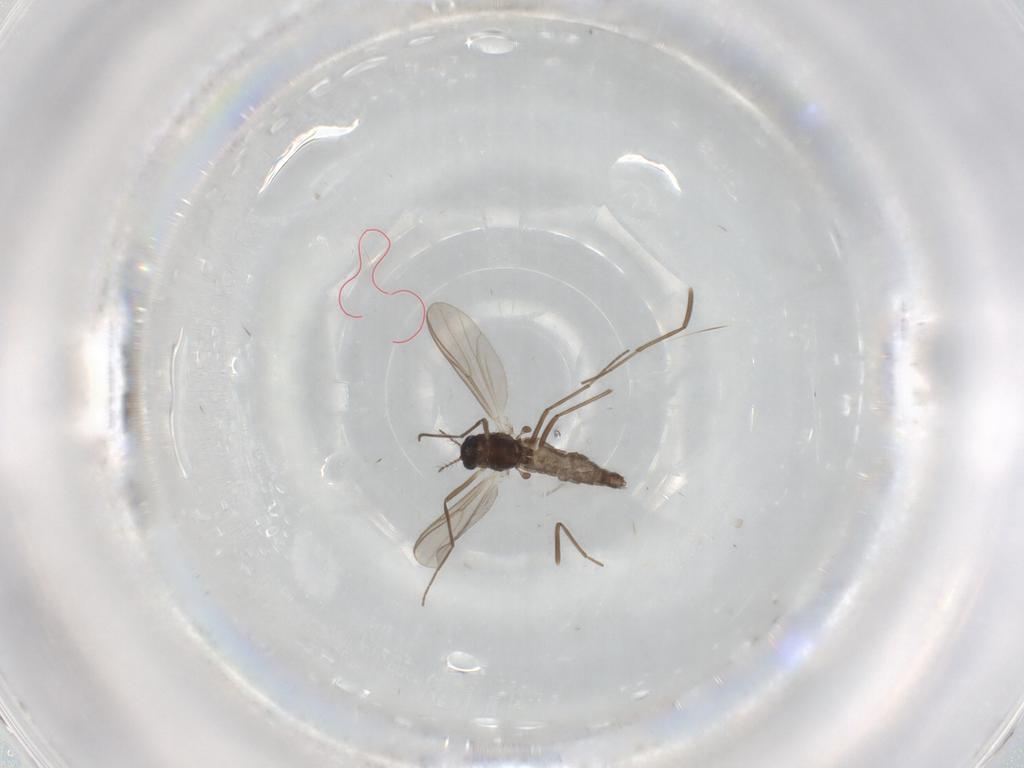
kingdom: Animalia
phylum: Arthropoda
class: Insecta
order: Diptera
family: Chironomidae
